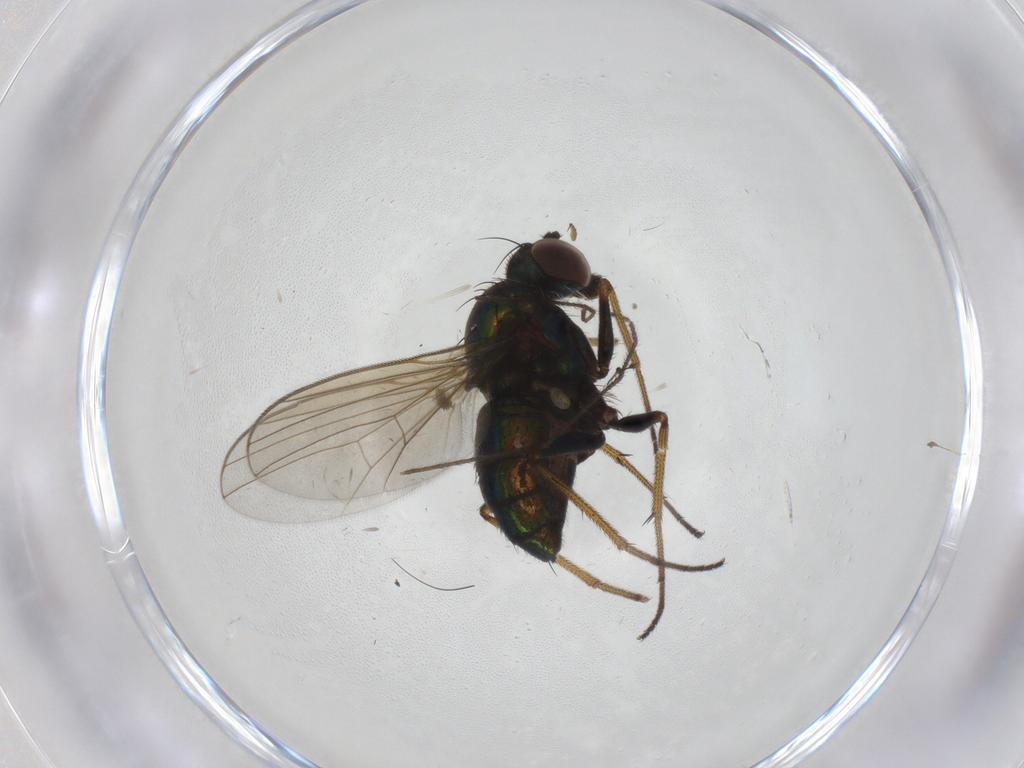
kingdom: Animalia
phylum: Arthropoda
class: Insecta
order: Diptera
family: Dolichopodidae
